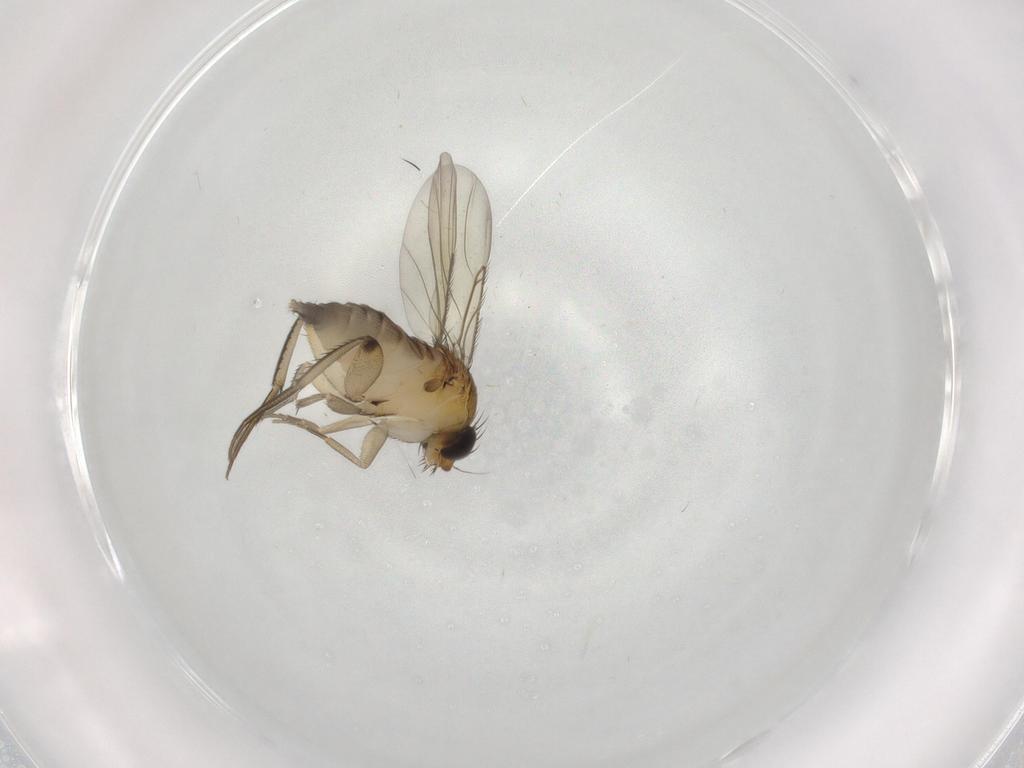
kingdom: Animalia
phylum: Arthropoda
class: Insecta
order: Diptera
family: Phoridae
